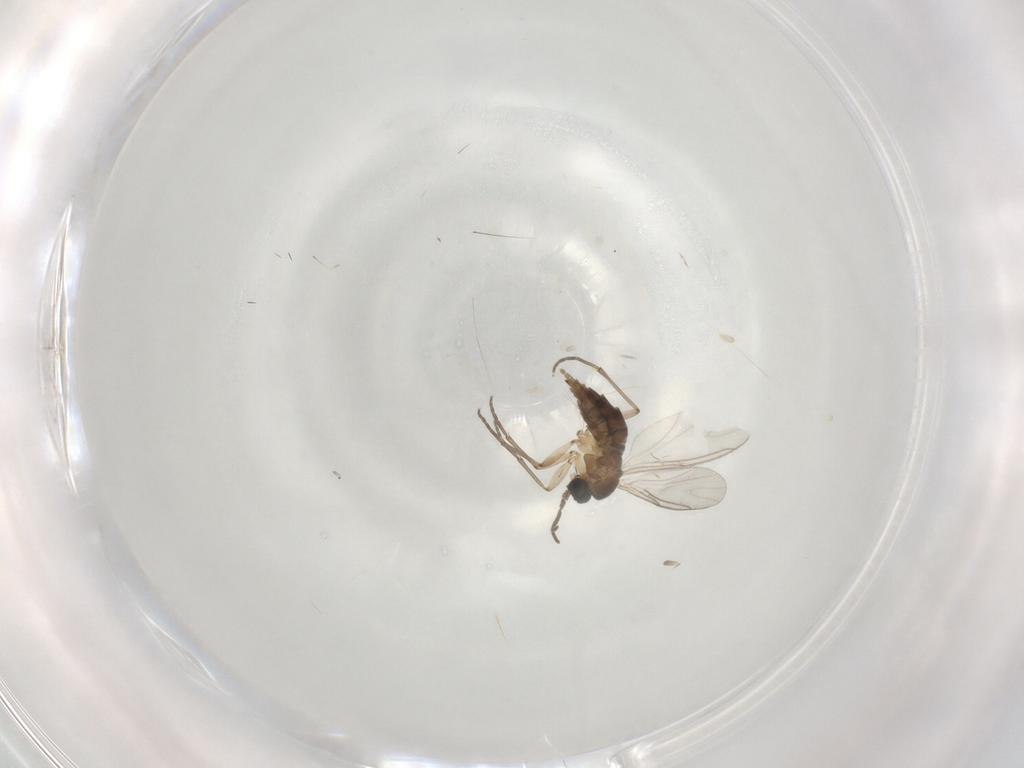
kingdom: Animalia
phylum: Arthropoda
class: Insecta
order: Diptera
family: Sciaridae
